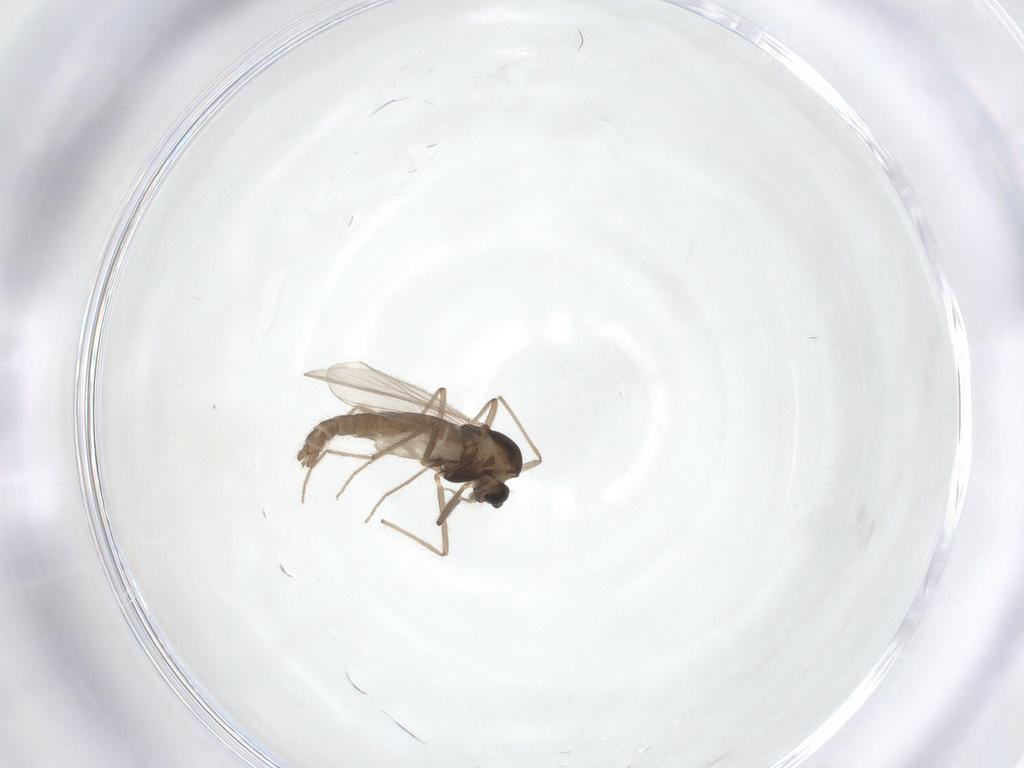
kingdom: Animalia
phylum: Arthropoda
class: Insecta
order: Diptera
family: Chironomidae
